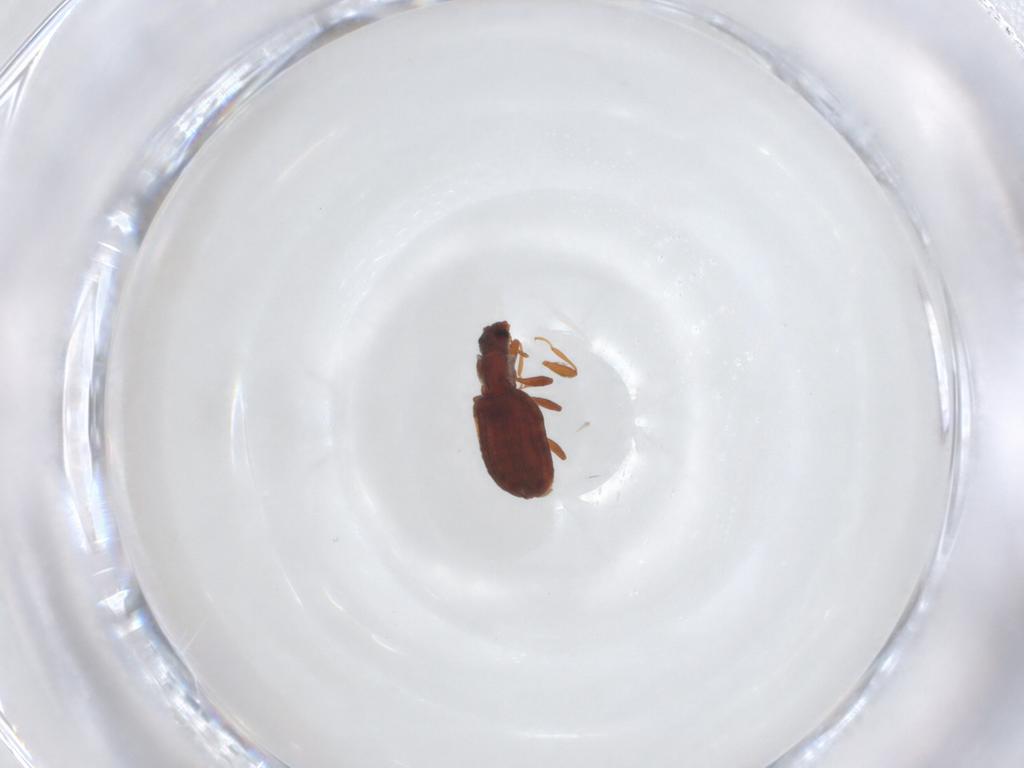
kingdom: Animalia
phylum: Arthropoda
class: Insecta
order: Coleoptera
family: Latridiidae
